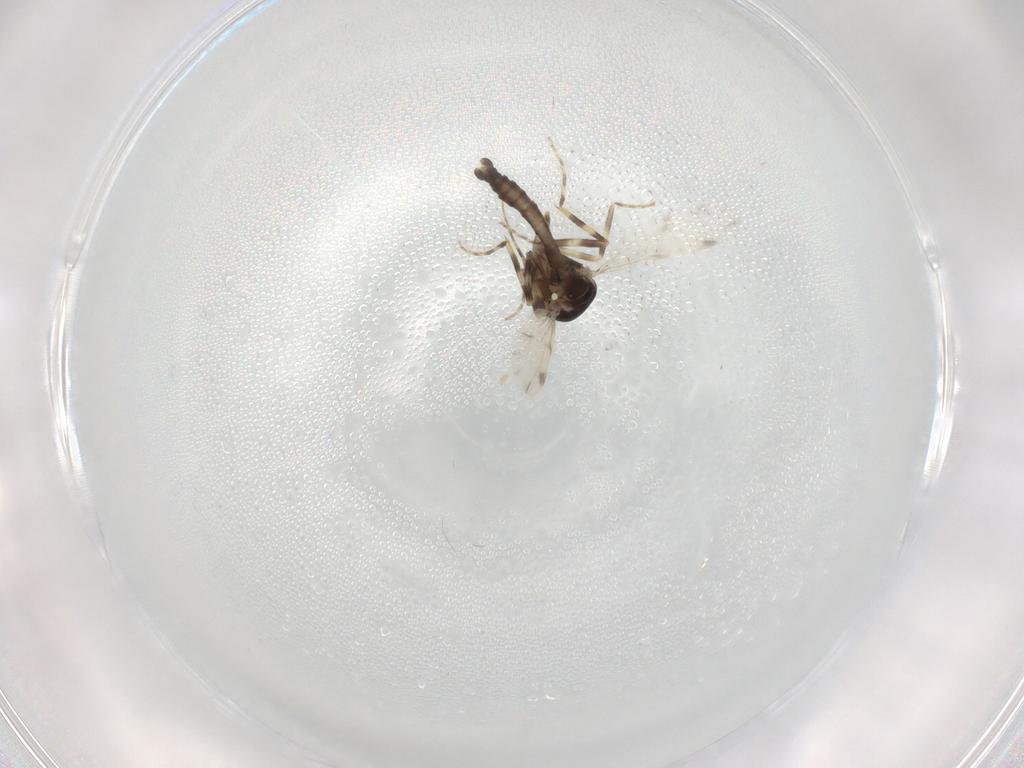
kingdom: Animalia
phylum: Arthropoda
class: Insecta
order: Diptera
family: Ceratopogonidae
